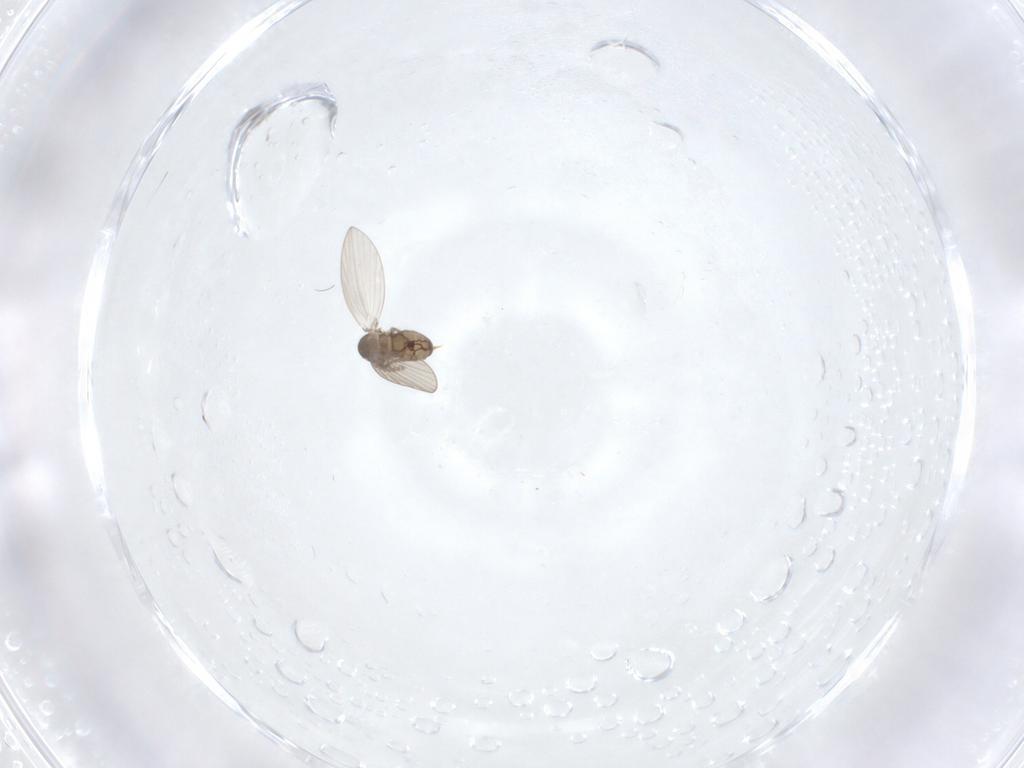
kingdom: Animalia
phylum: Arthropoda
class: Insecta
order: Diptera
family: Psychodidae
